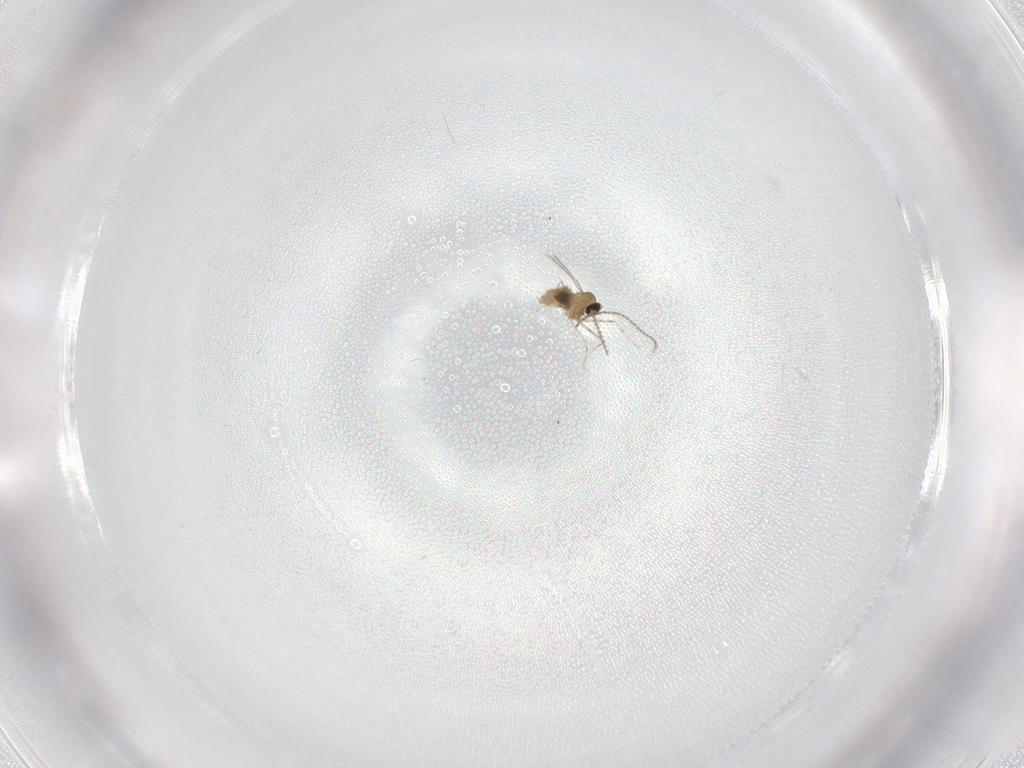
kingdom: Animalia
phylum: Arthropoda
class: Insecta
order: Diptera
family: Cecidomyiidae
